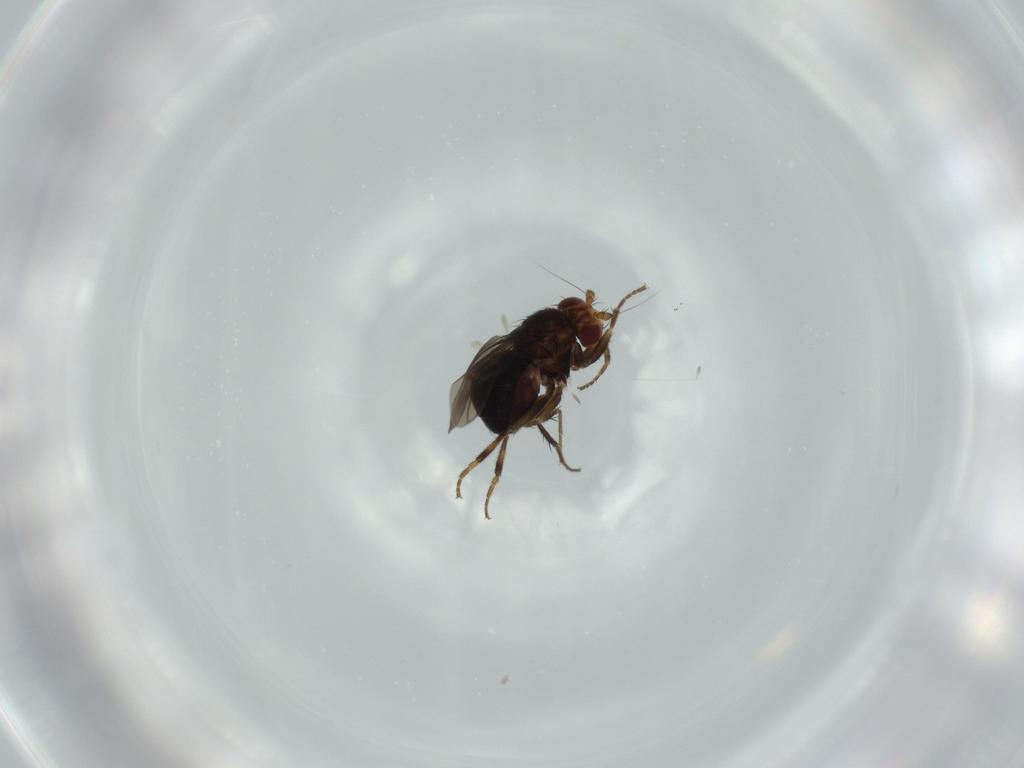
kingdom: Animalia
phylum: Arthropoda
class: Insecta
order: Diptera
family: Sphaeroceridae
